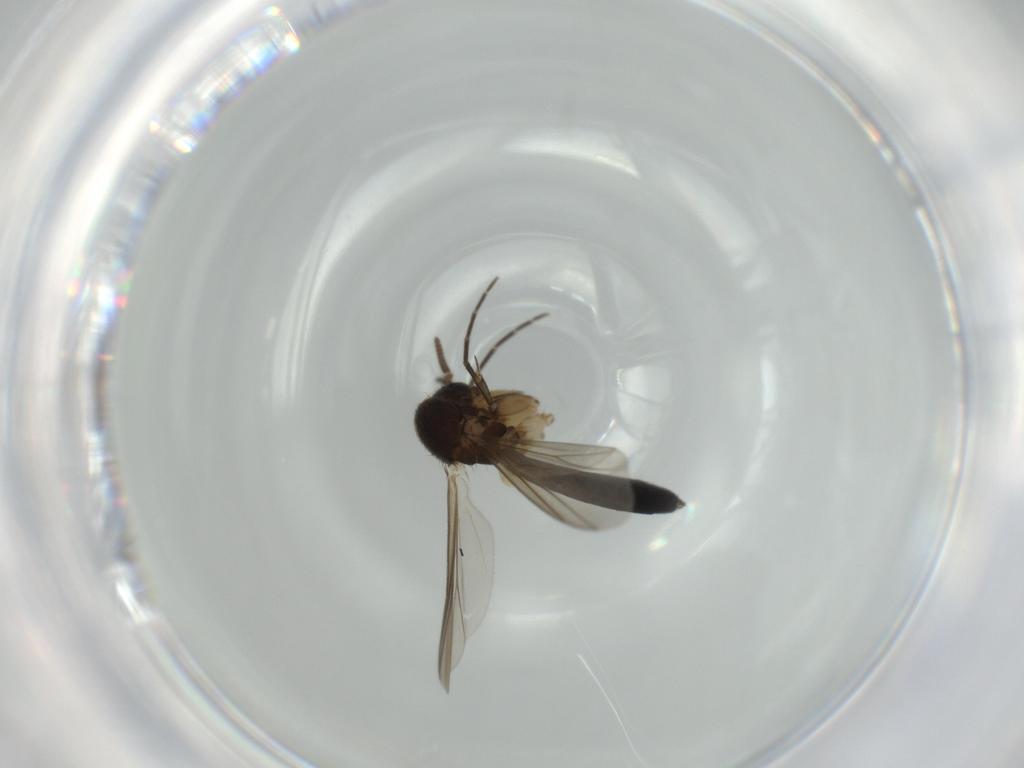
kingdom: Animalia
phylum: Arthropoda
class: Insecta
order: Diptera
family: Mycetophilidae
